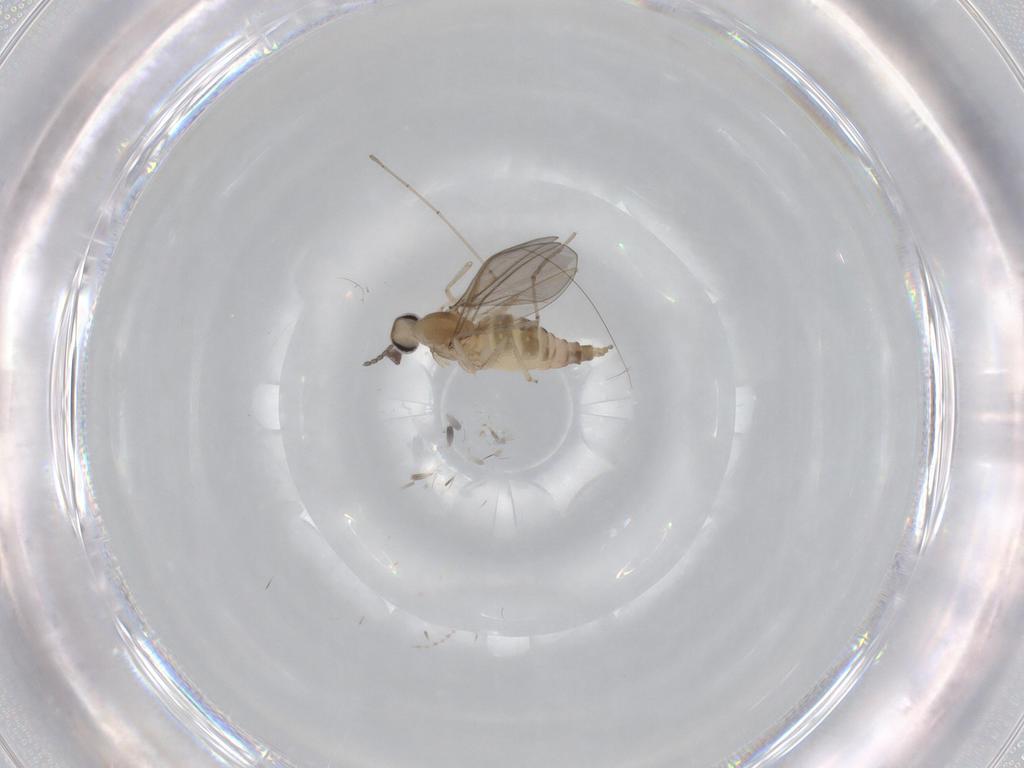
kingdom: Animalia
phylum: Arthropoda
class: Insecta
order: Diptera
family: Cecidomyiidae
